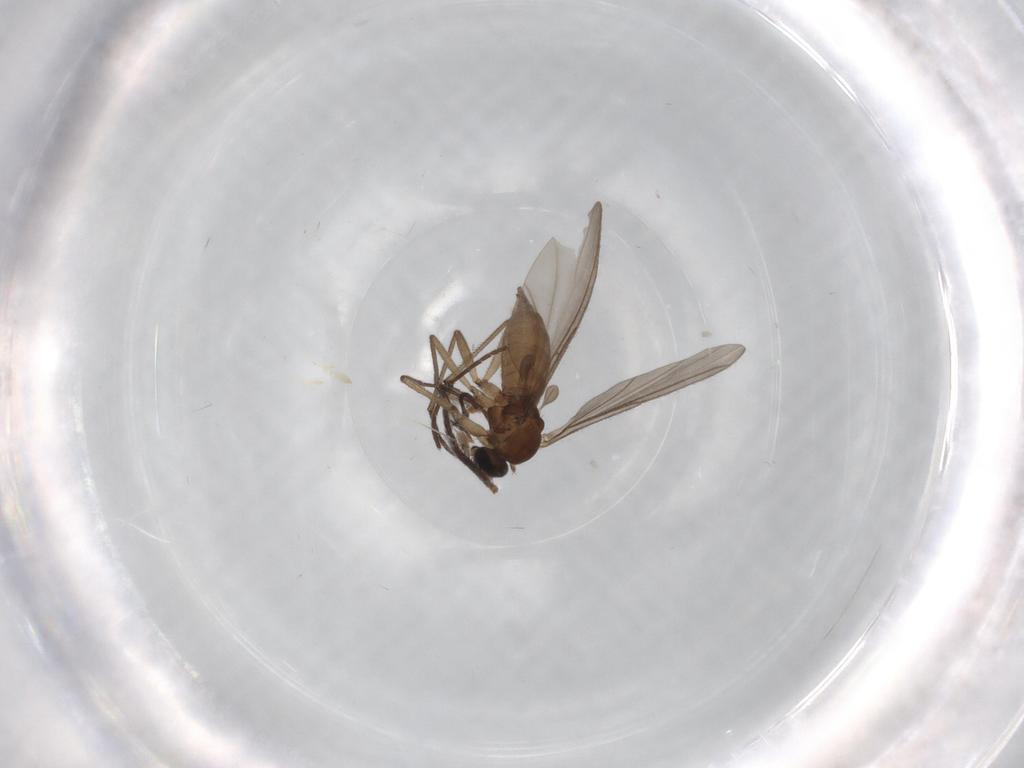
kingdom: Animalia
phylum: Arthropoda
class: Insecta
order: Diptera
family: Sciaridae
